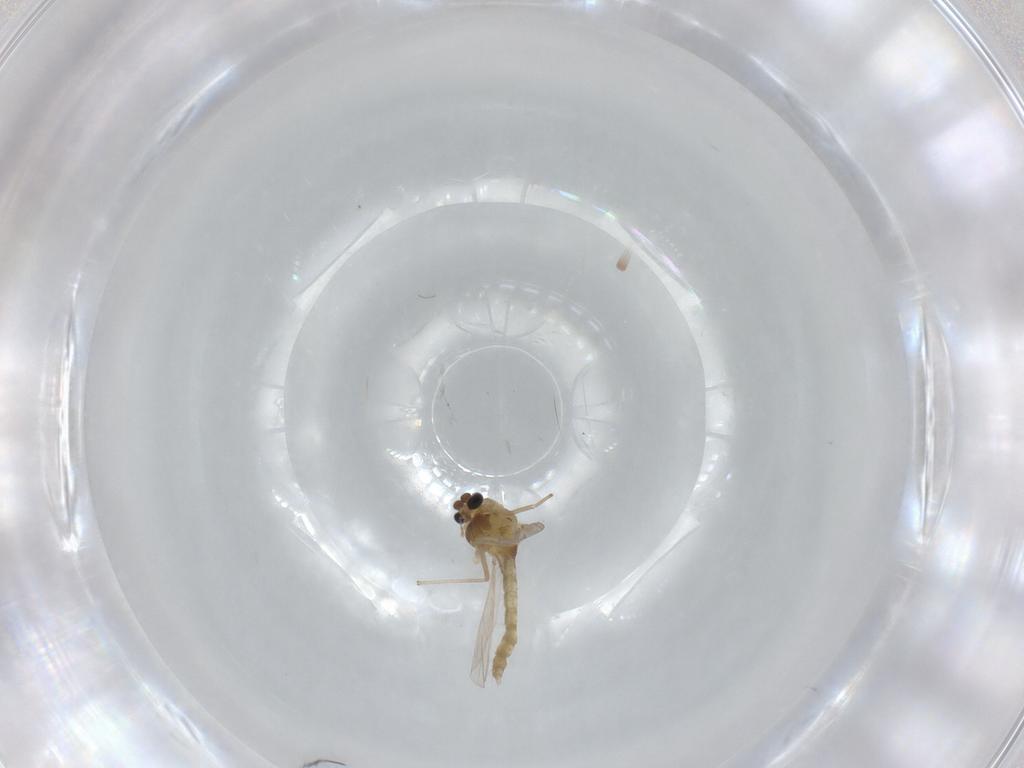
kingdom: Animalia
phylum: Arthropoda
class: Insecta
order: Diptera
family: Chironomidae
